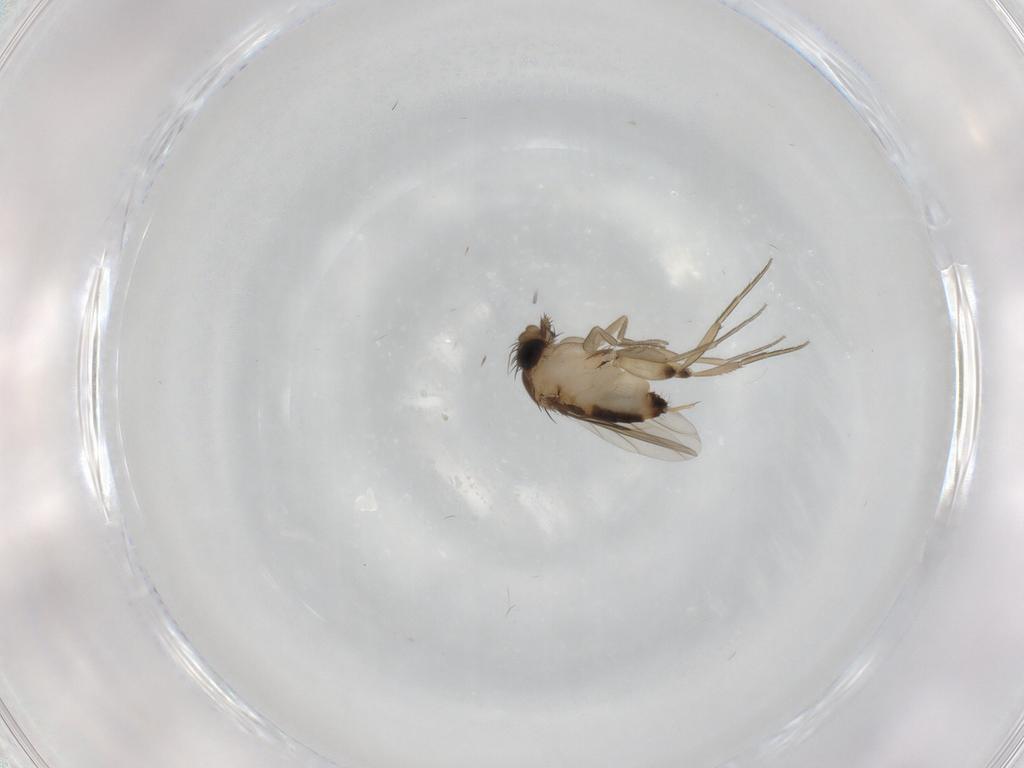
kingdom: Animalia
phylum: Arthropoda
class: Insecta
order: Diptera
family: Phoridae
